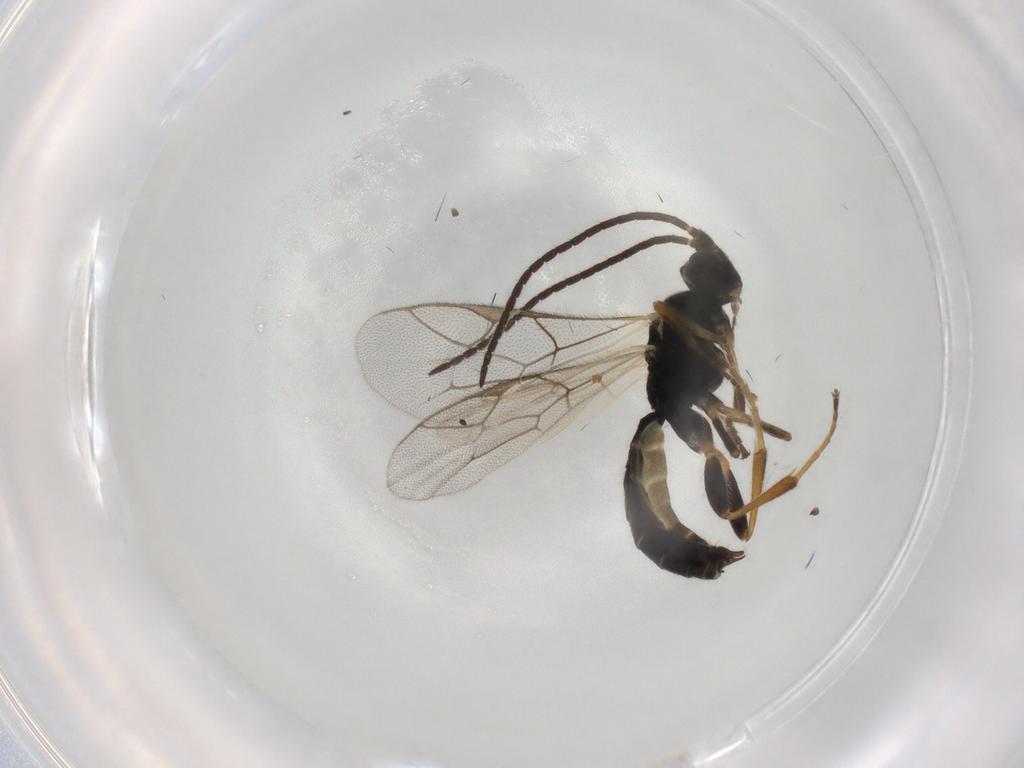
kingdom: Animalia
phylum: Arthropoda
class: Insecta
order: Hymenoptera
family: Ichneumonidae
